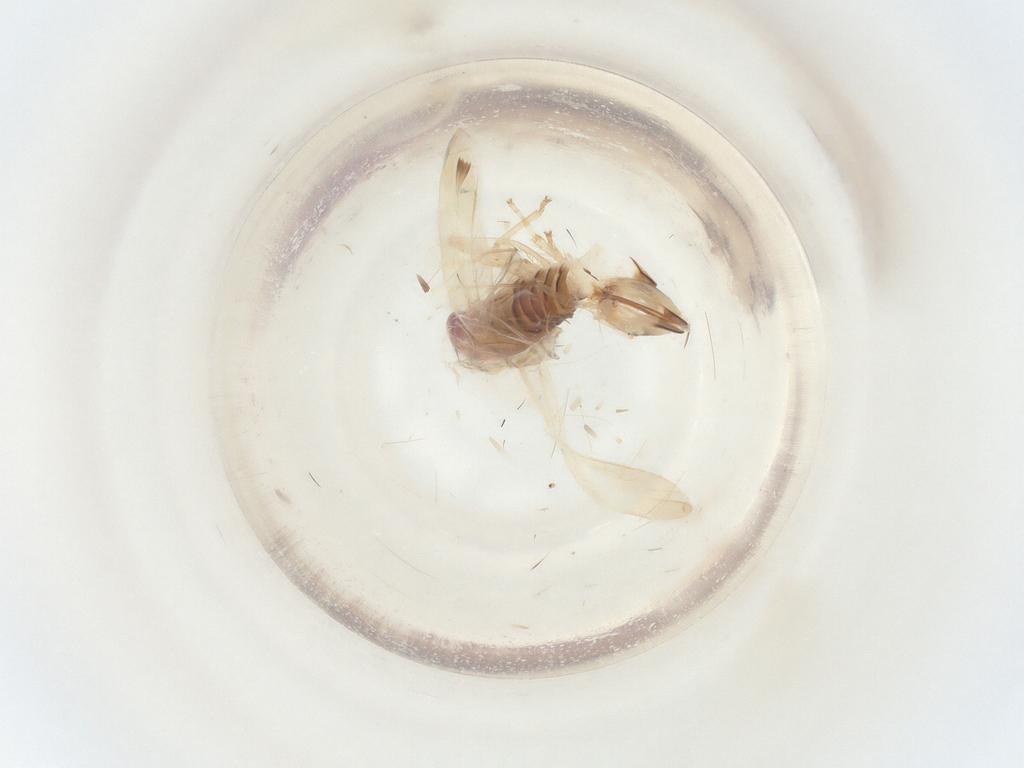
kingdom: Animalia
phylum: Arthropoda
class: Insecta
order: Hemiptera
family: Cicadellidae
